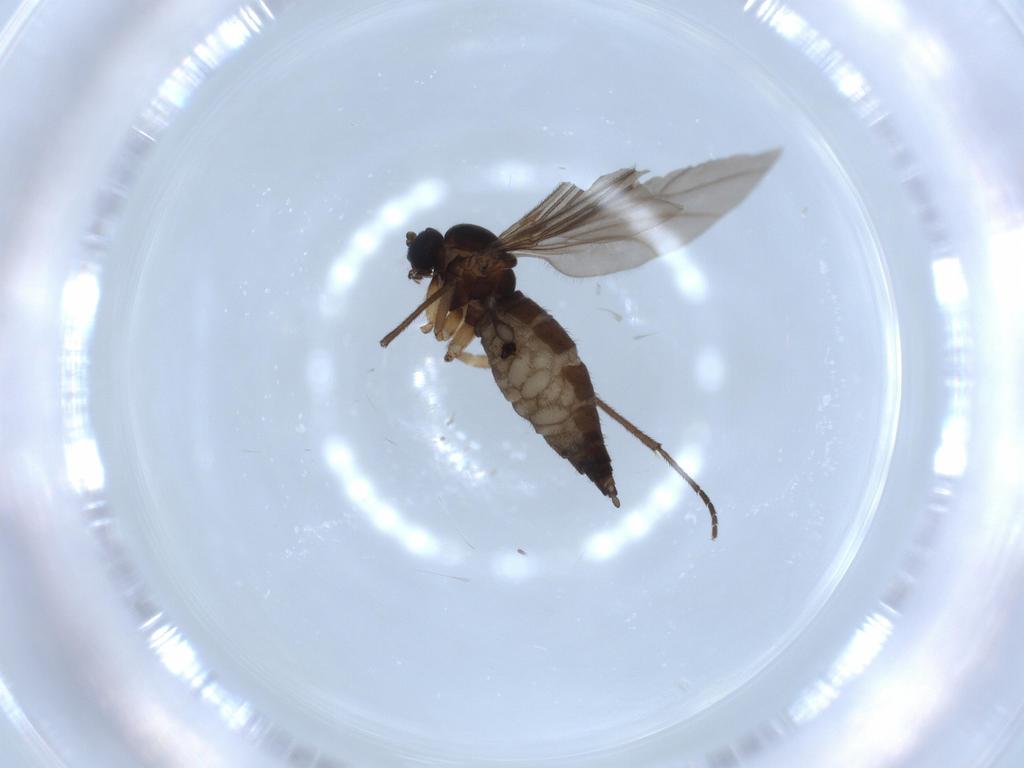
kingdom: Animalia
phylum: Arthropoda
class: Insecta
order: Diptera
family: Sciaridae
